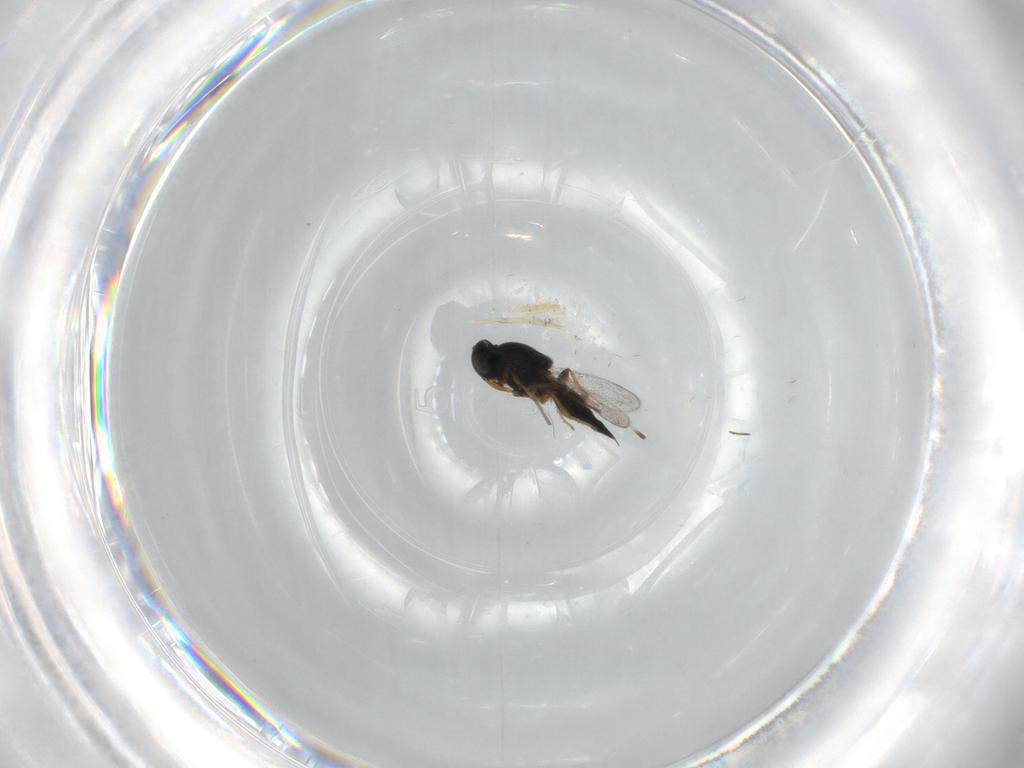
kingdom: Animalia
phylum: Arthropoda
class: Insecta
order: Hymenoptera
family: Platygastridae
